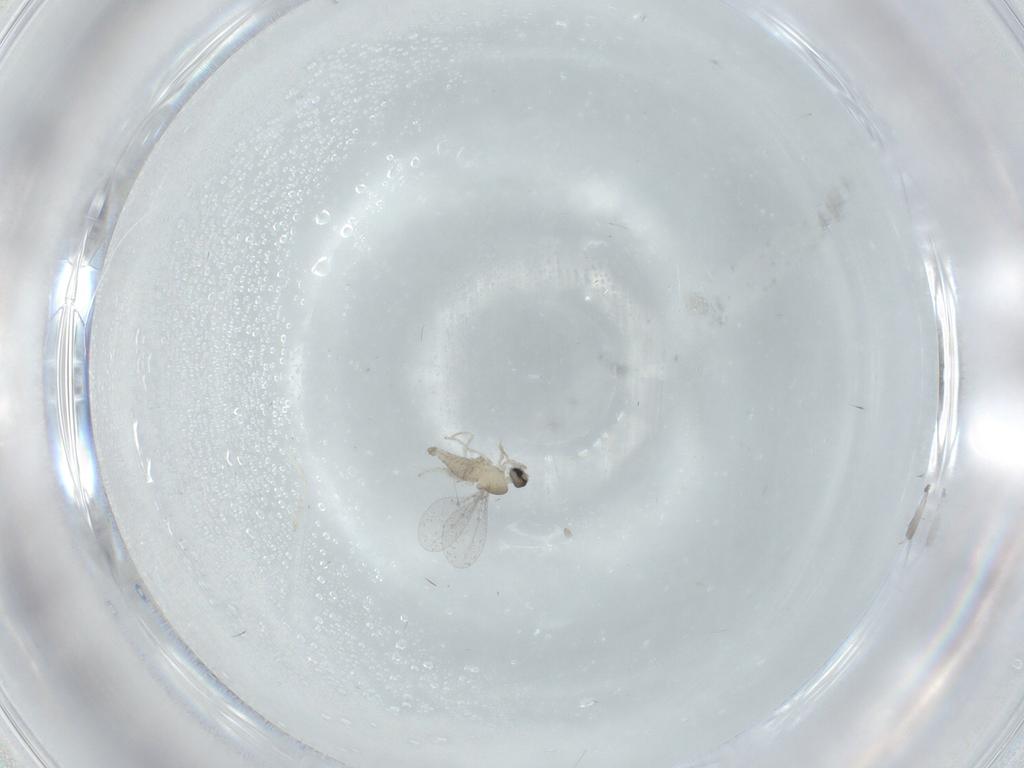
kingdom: Animalia
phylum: Arthropoda
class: Insecta
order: Diptera
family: Cecidomyiidae
